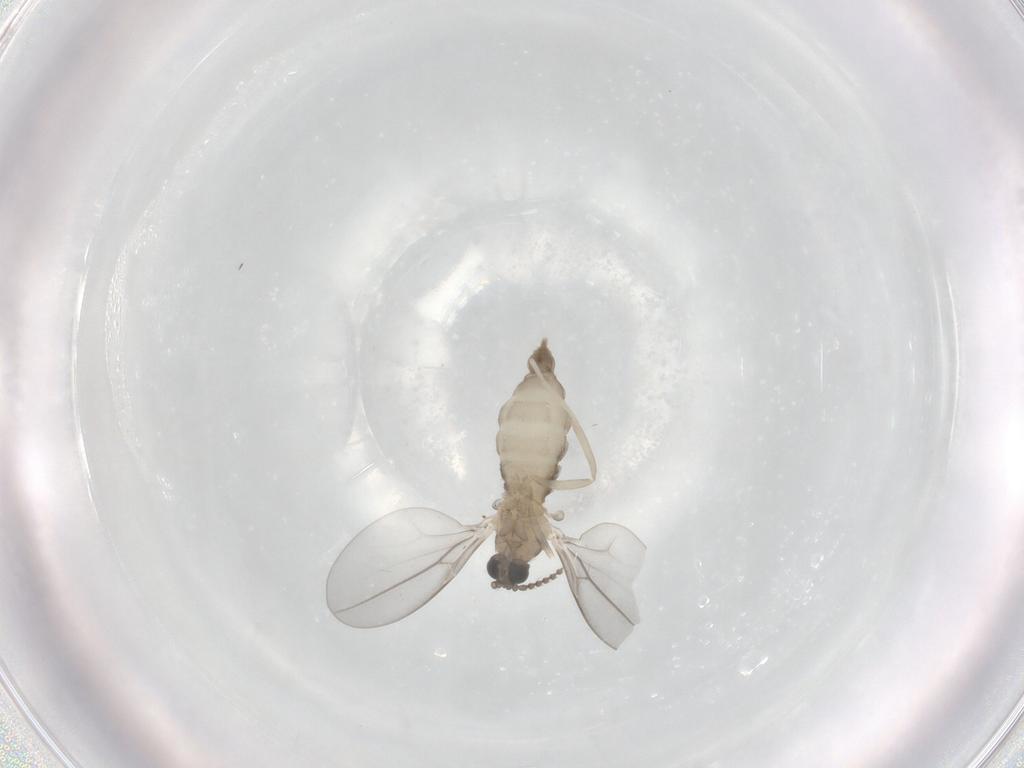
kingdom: Animalia
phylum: Arthropoda
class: Insecta
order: Diptera
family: Cecidomyiidae
